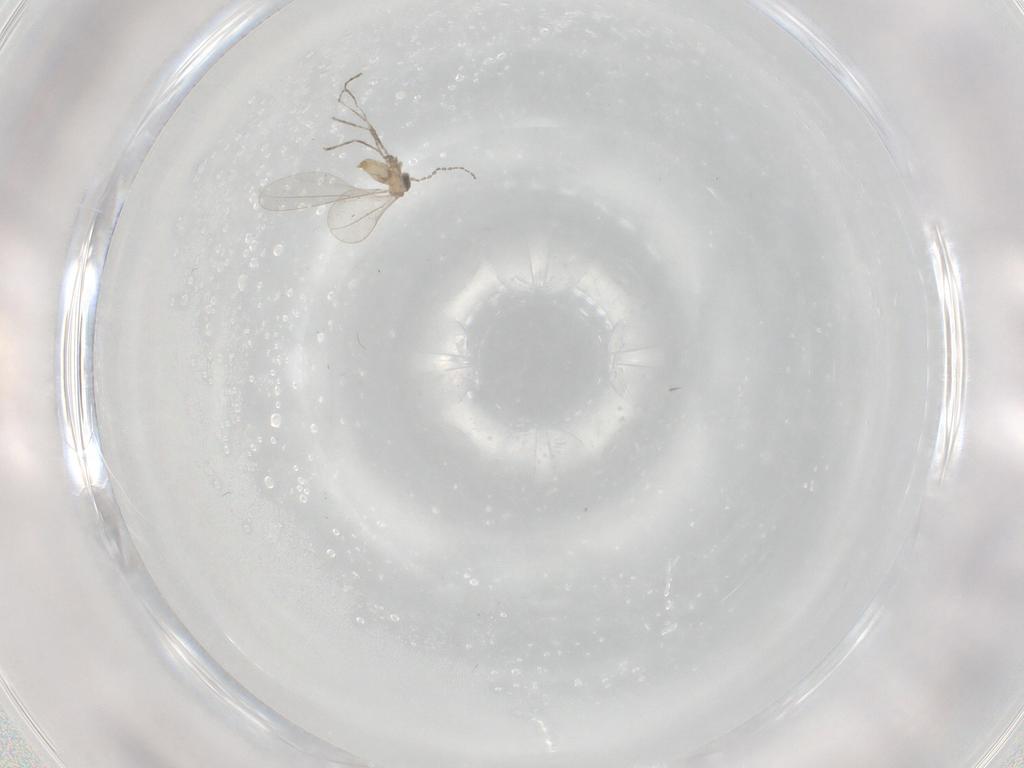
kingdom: Animalia
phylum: Arthropoda
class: Insecta
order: Diptera
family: Cecidomyiidae
